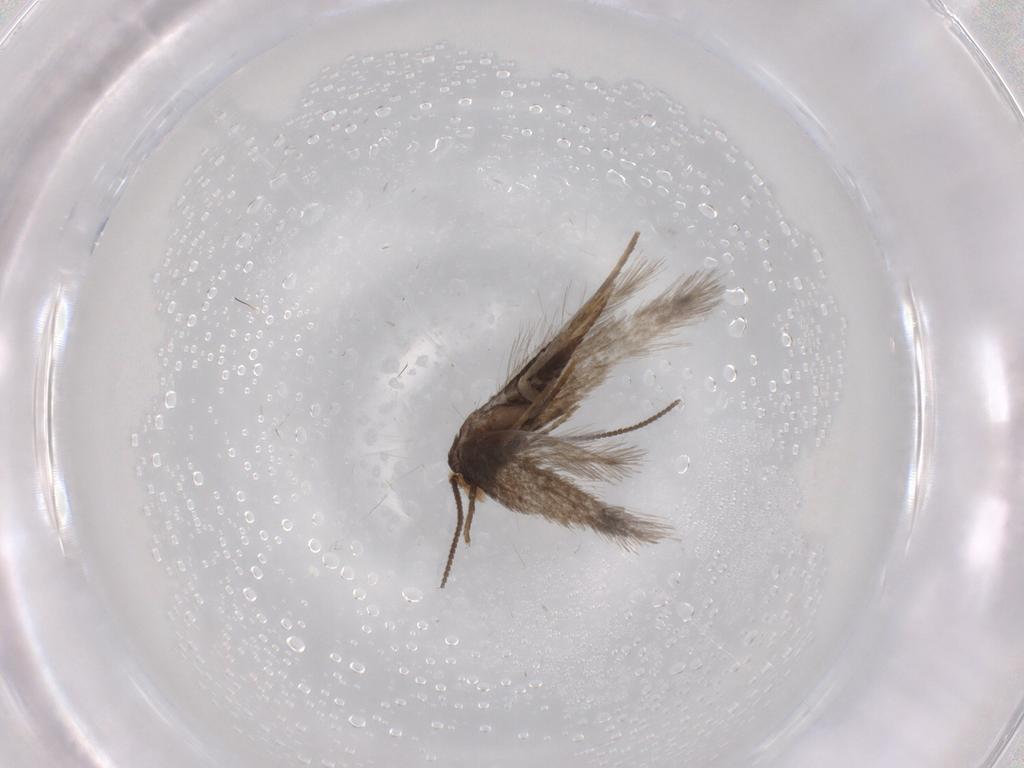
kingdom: Animalia
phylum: Arthropoda
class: Insecta
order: Lepidoptera
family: Nepticulidae
